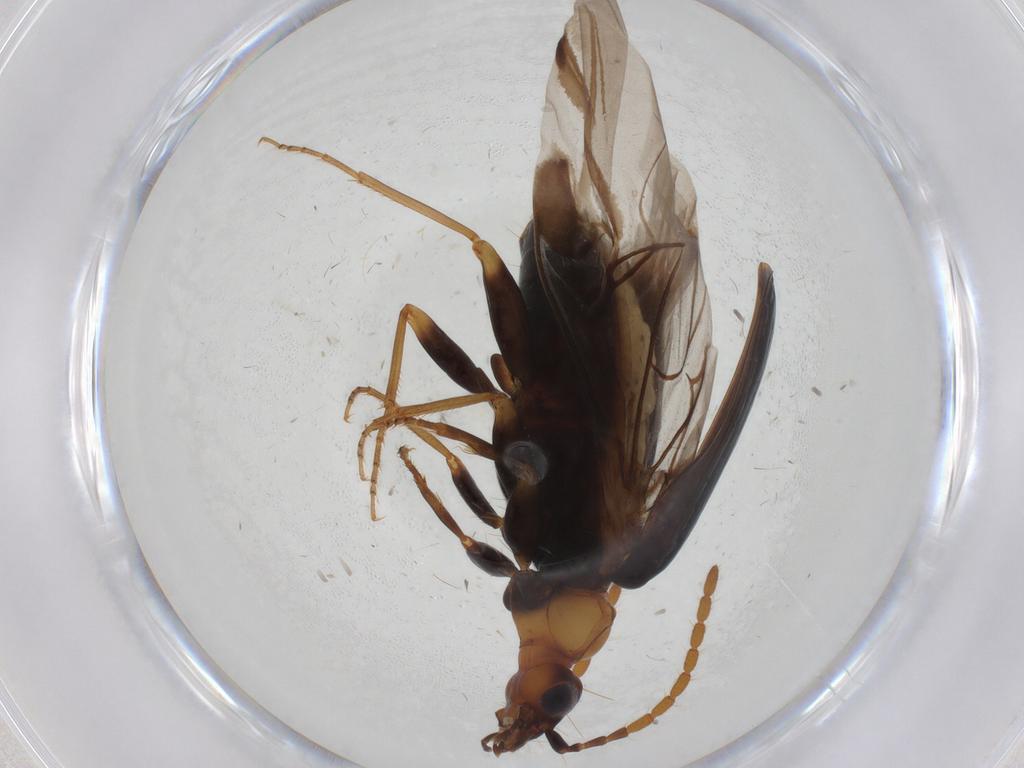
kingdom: Animalia
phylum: Arthropoda
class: Insecta
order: Coleoptera
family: Carabidae
